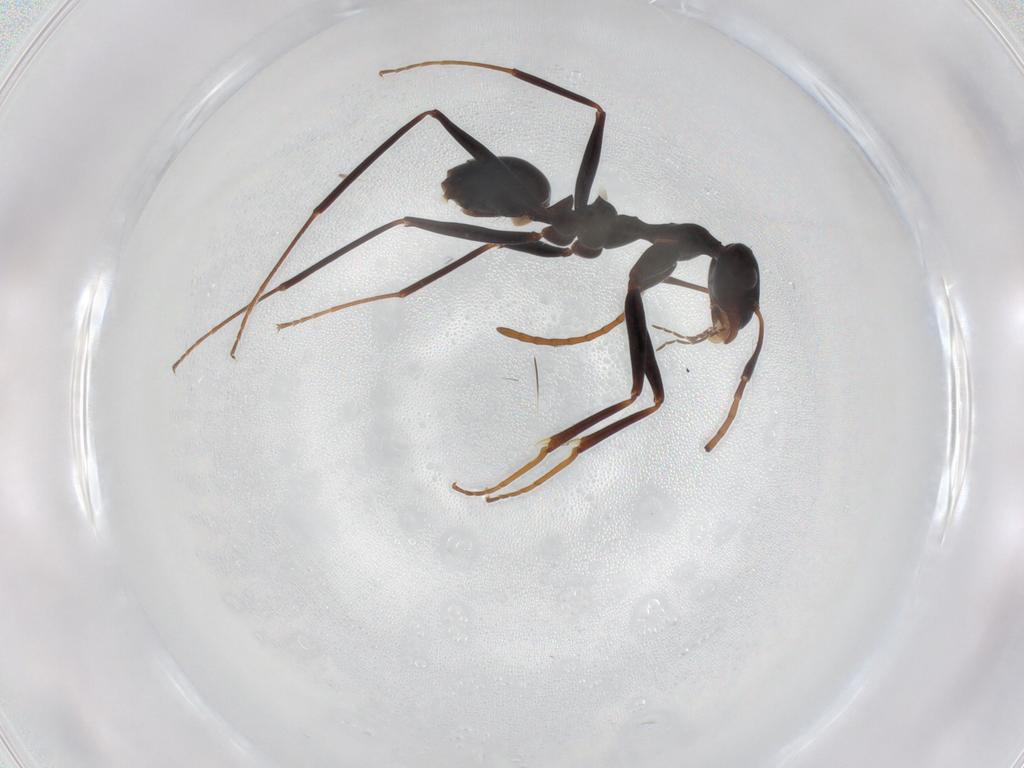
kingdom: Animalia
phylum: Arthropoda
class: Insecta
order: Hymenoptera
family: Formicidae
